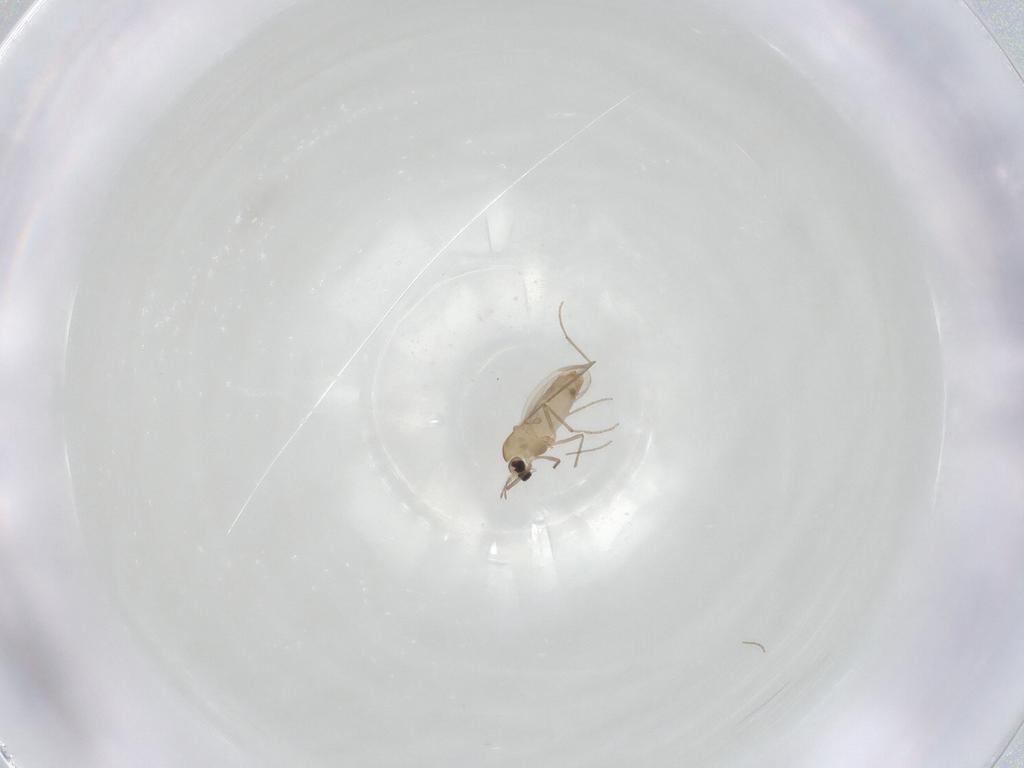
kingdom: Animalia
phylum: Arthropoda
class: Insecta
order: Diptera
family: Chironomidae
